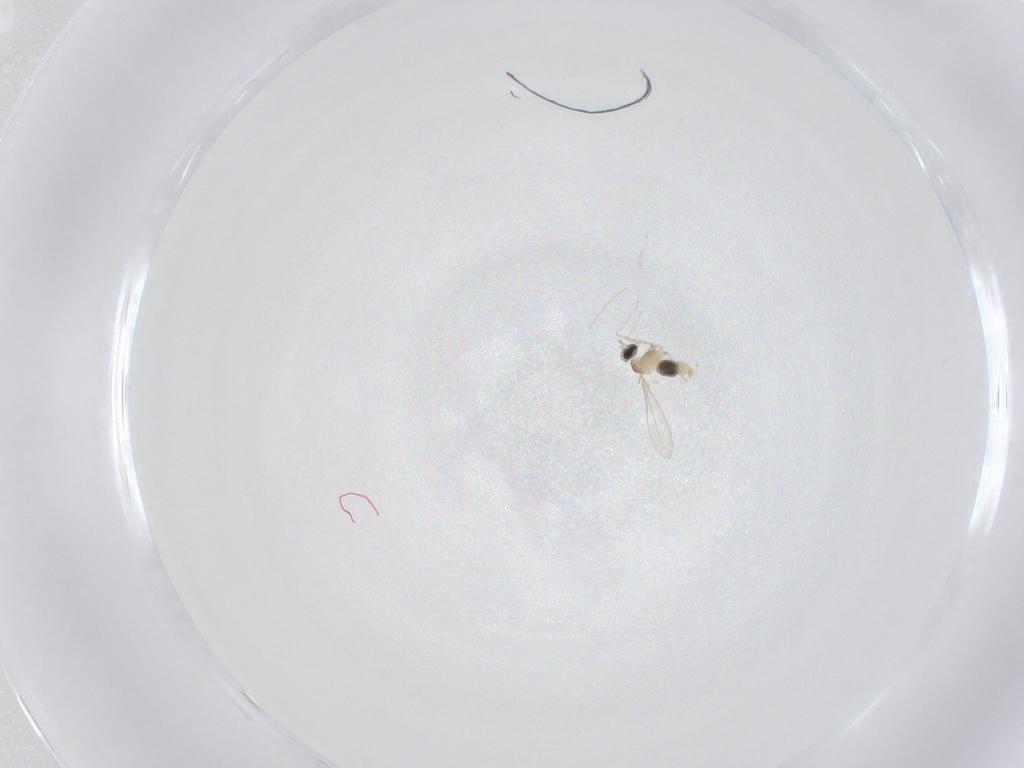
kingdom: Animalia
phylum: Arthropoda
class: Insecta
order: Diptera
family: Cecidomyiidae
